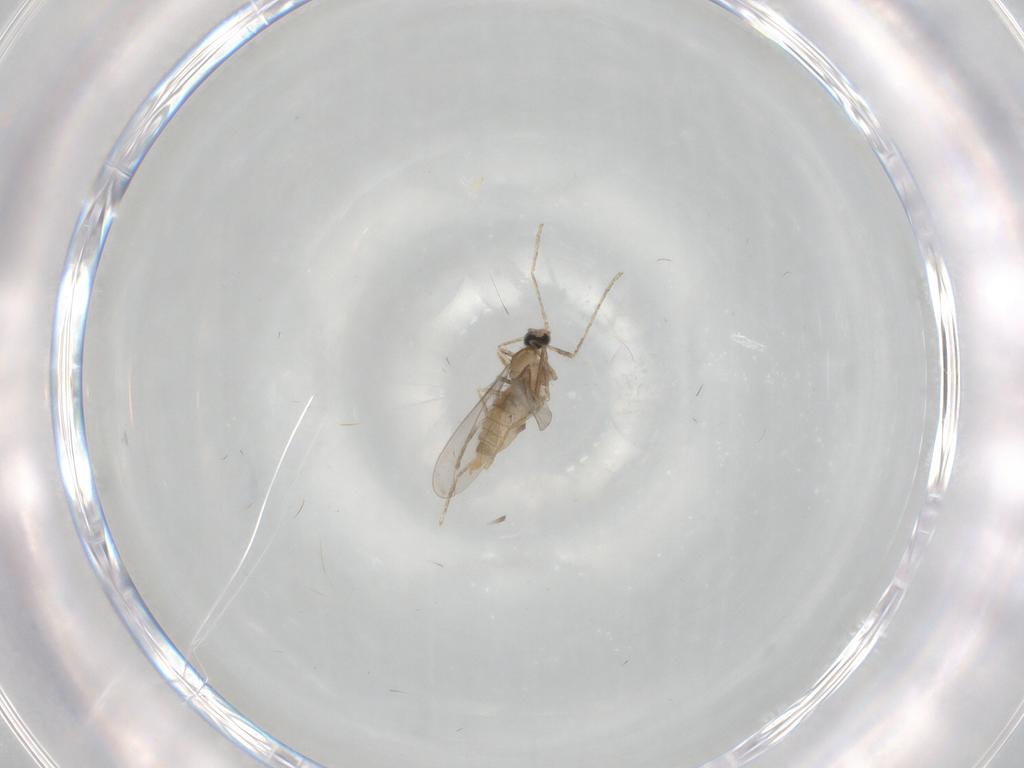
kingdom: Animalia
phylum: Arthropoda
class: Insecta
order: Diptera
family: Cecidomyiidae
